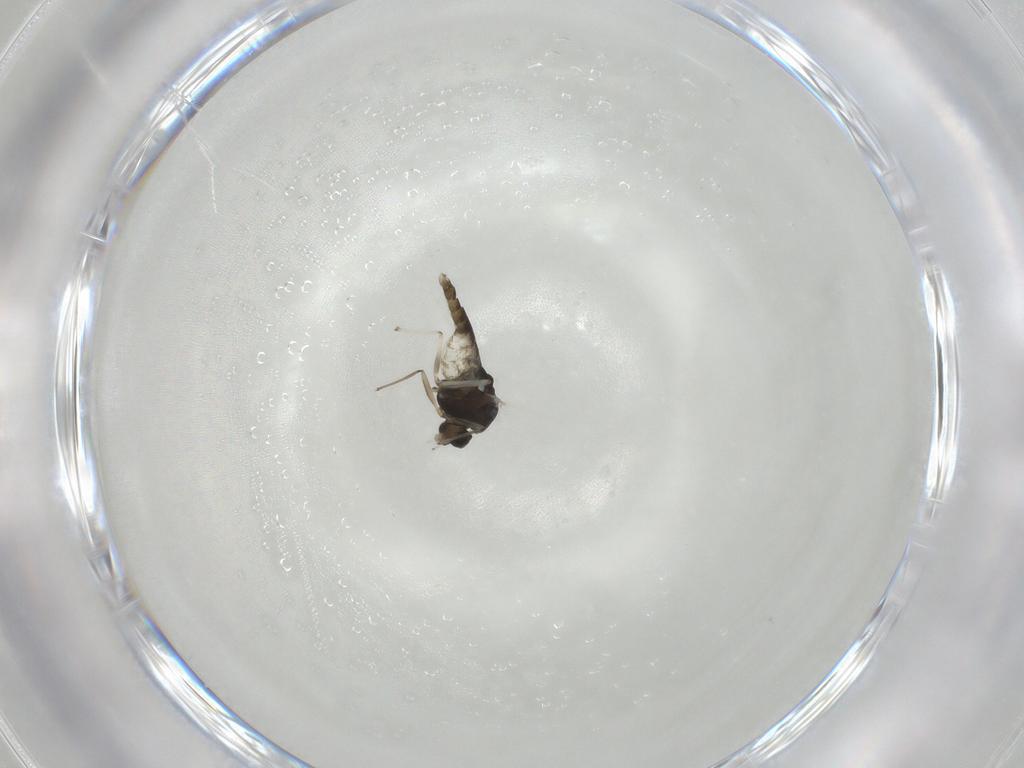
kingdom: Animalia
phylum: Arthropoda
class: Insecta
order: Diptera
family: Chironomidae
